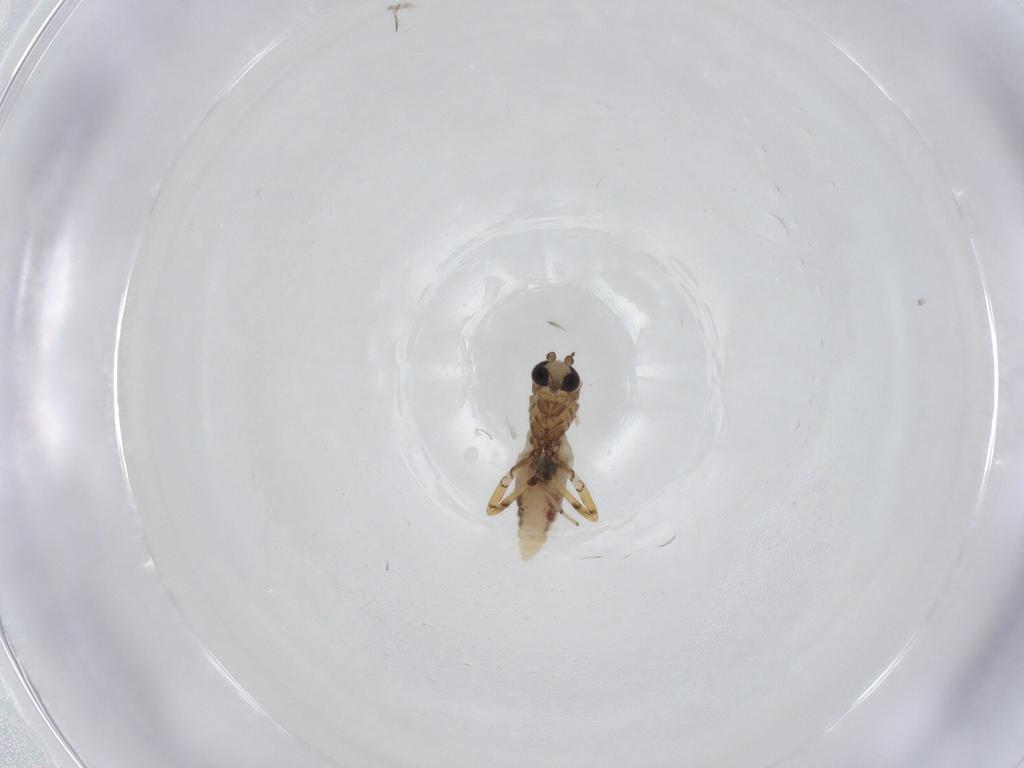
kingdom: Animalia
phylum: Arthropoda
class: Insecta
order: Diptera
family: Ceratopogonidae
